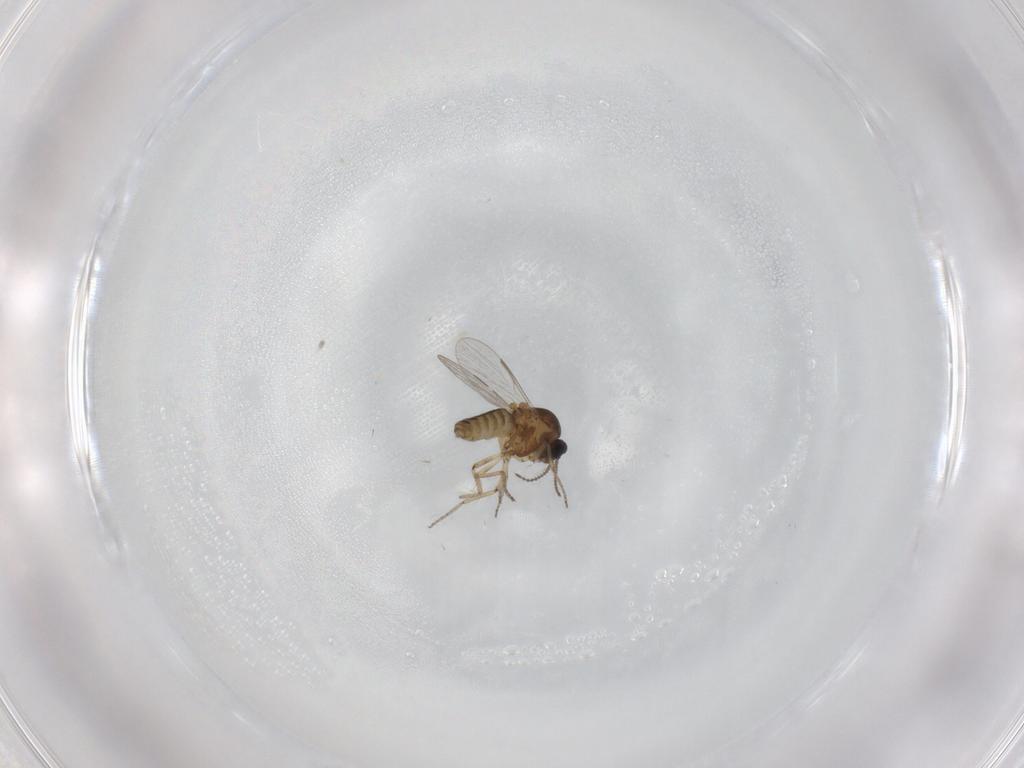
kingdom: Animalia
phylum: Arthropoda
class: Insecta
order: Diptera
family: Ceratopogonidae
